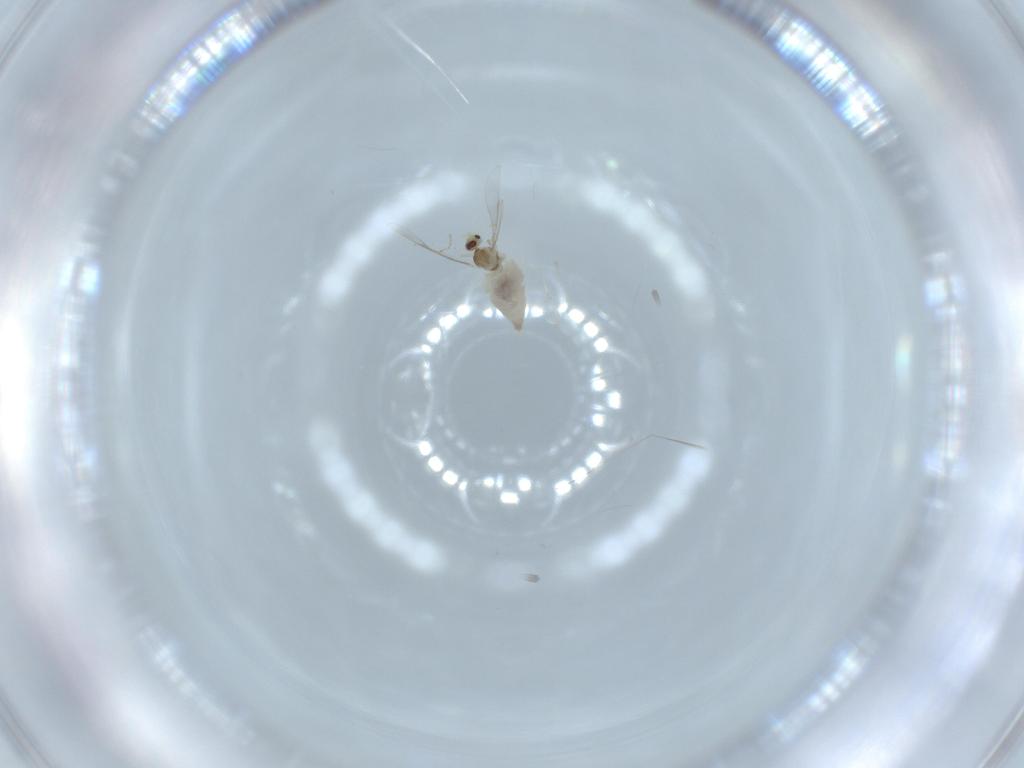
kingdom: Animalia
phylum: Arthropoda
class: Insecta
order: Diptera
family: Cecidomyiidae
